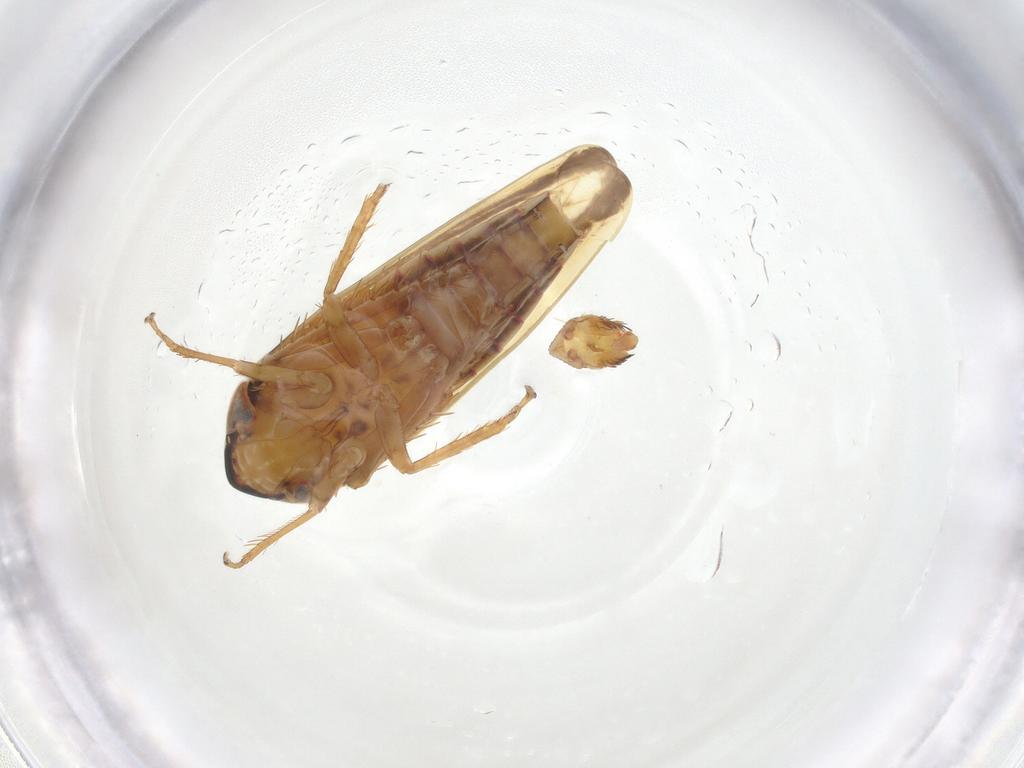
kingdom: Animalia
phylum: Arthropoda
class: Insecta
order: Hemiptera
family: Cicadellidae
